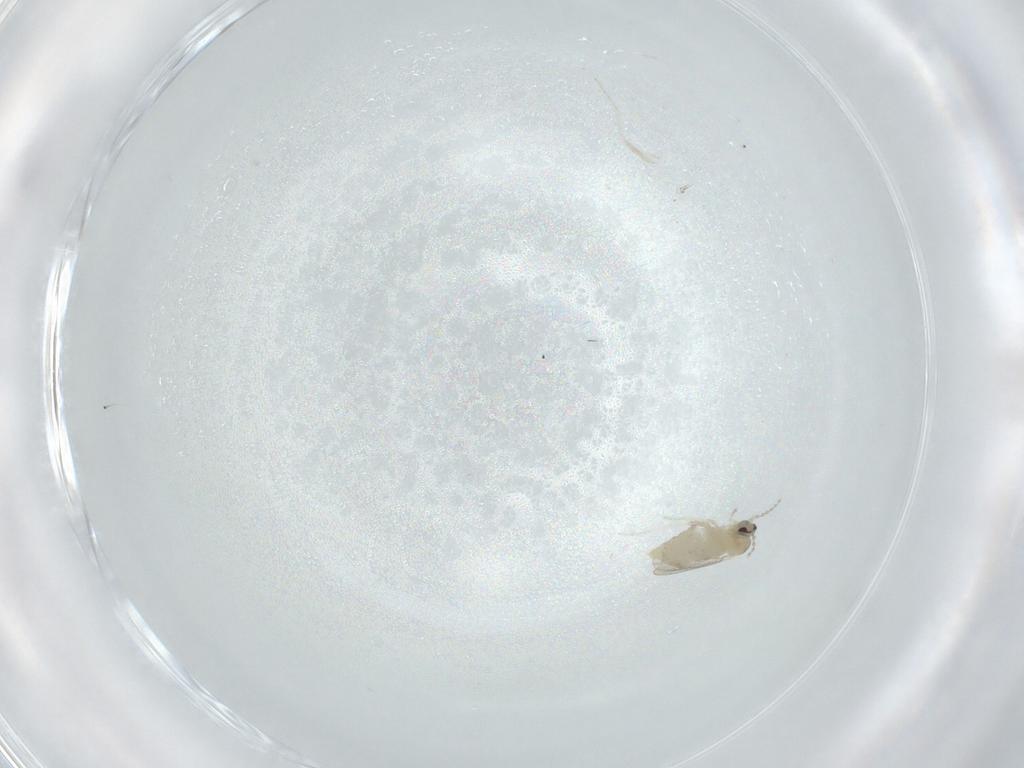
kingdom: Animalia
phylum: Arthropoda
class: Insecta
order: Diptera
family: Cecidomyiidae
